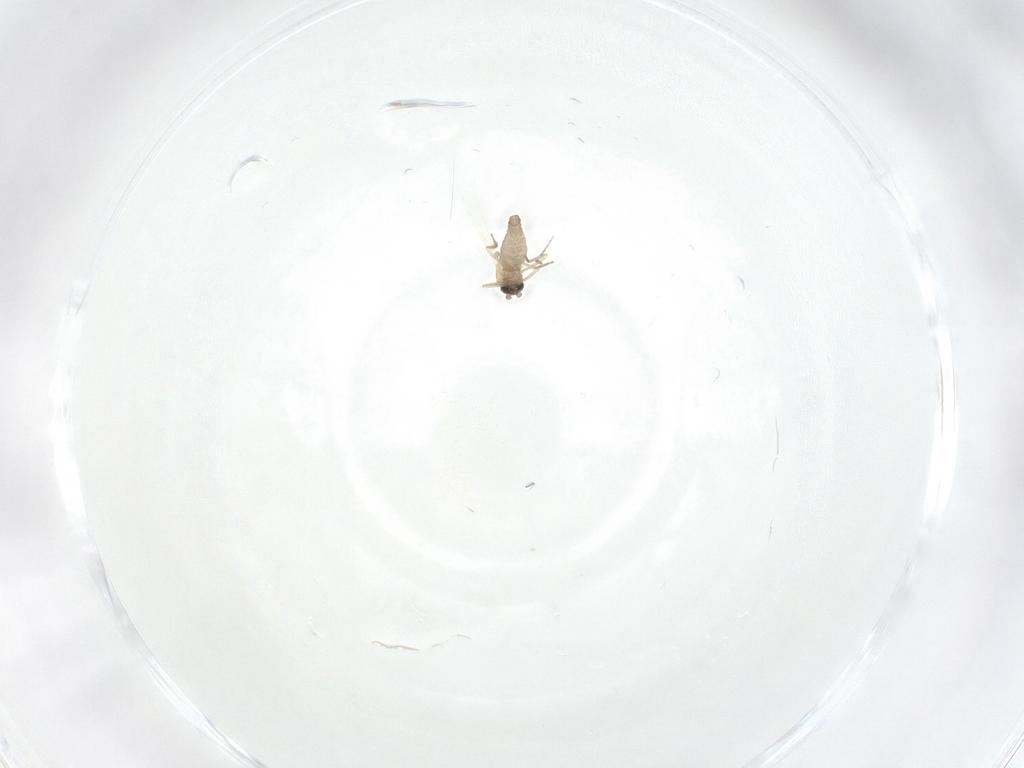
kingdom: Animalia
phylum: Arthropoda
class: Insecta
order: Diptera
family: Ceratopogonidae
